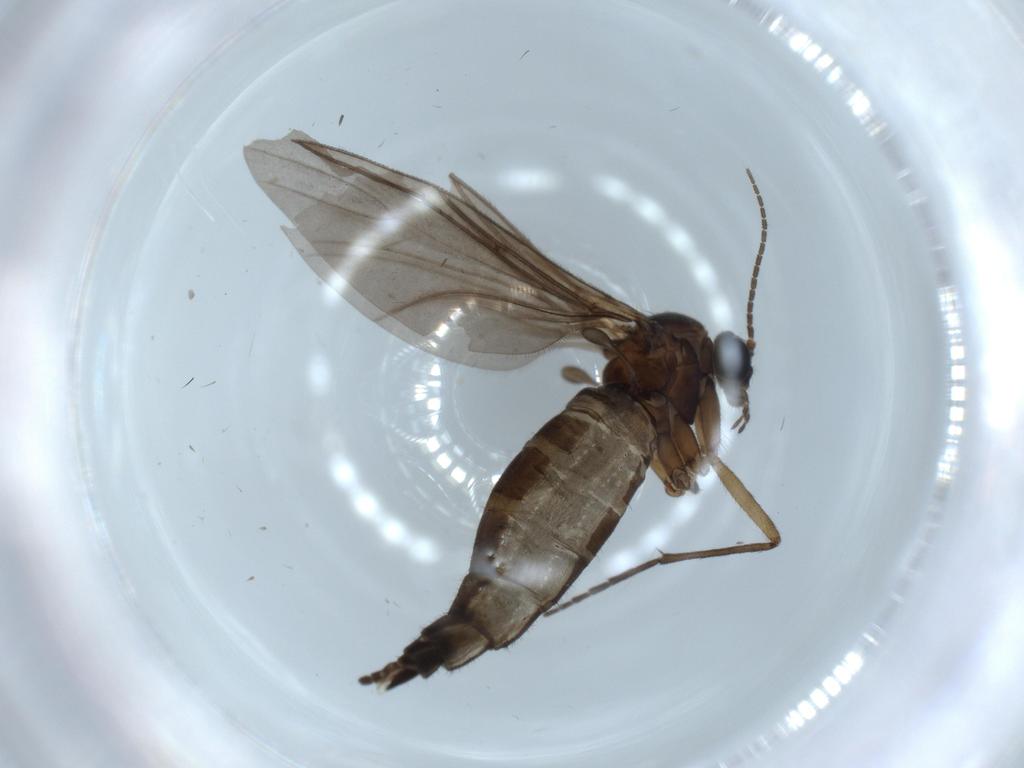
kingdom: Animalia
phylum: Arthropoda
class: Insecta
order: Diptera
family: Sciaridae
